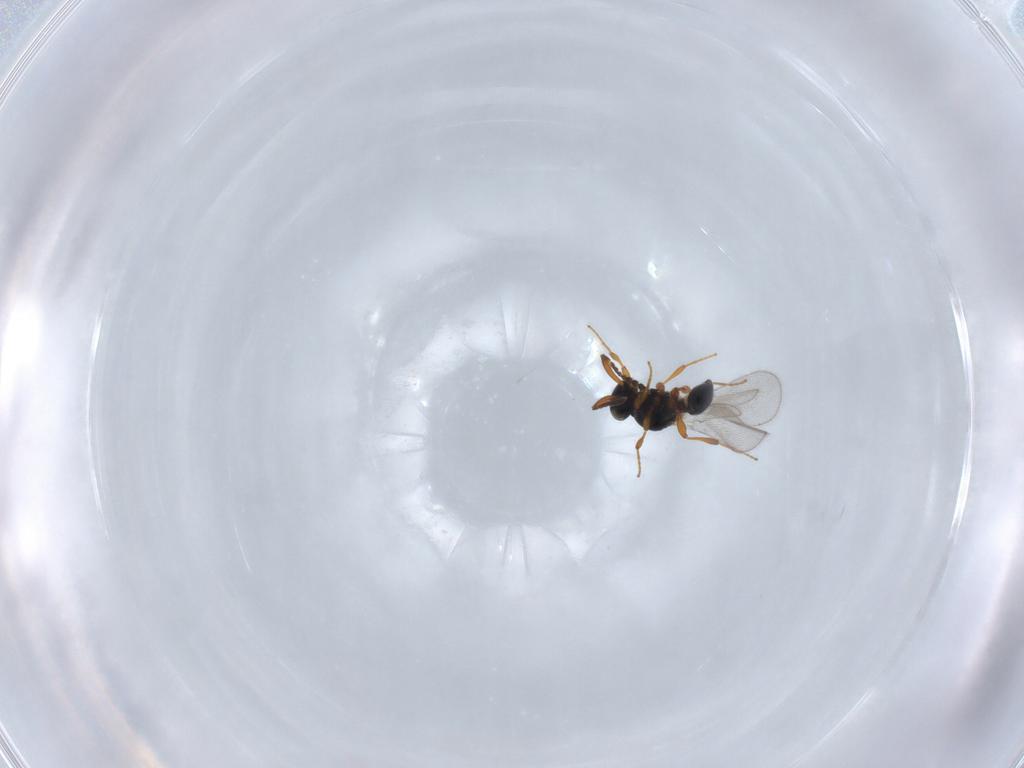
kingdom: Animalia
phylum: Arthropoda
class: Insecta
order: Hymenoptera
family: Platygastridae
